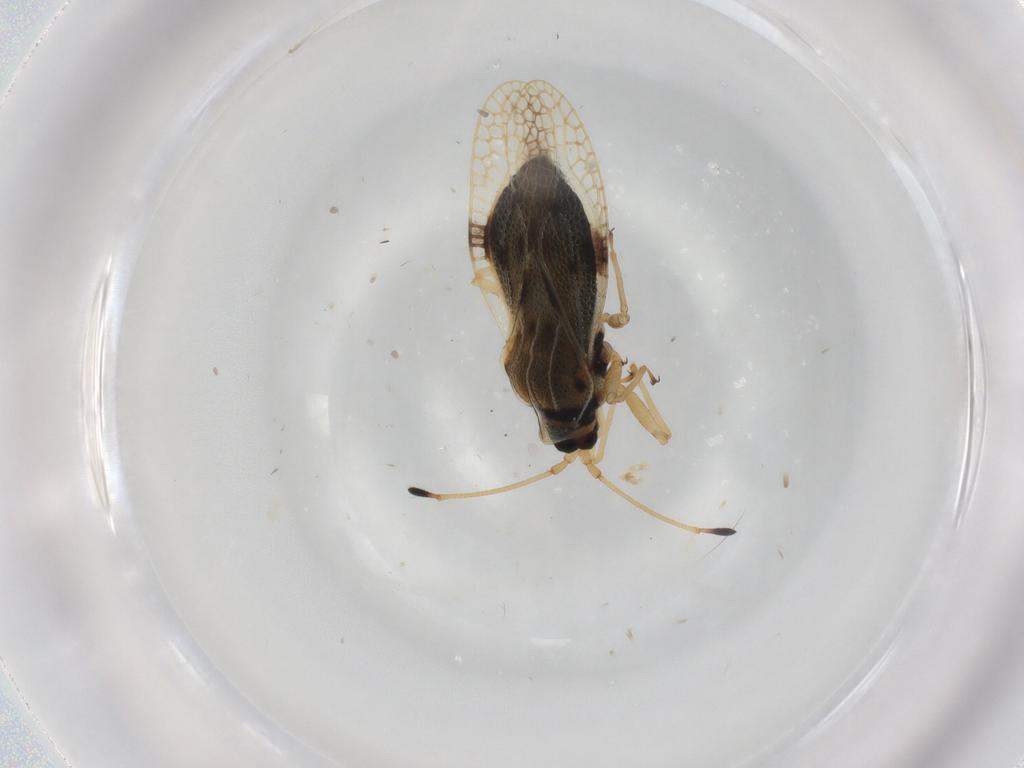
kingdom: Animalia
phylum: Arthropoda
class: Insecta
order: Hemiptera
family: Tingidae
